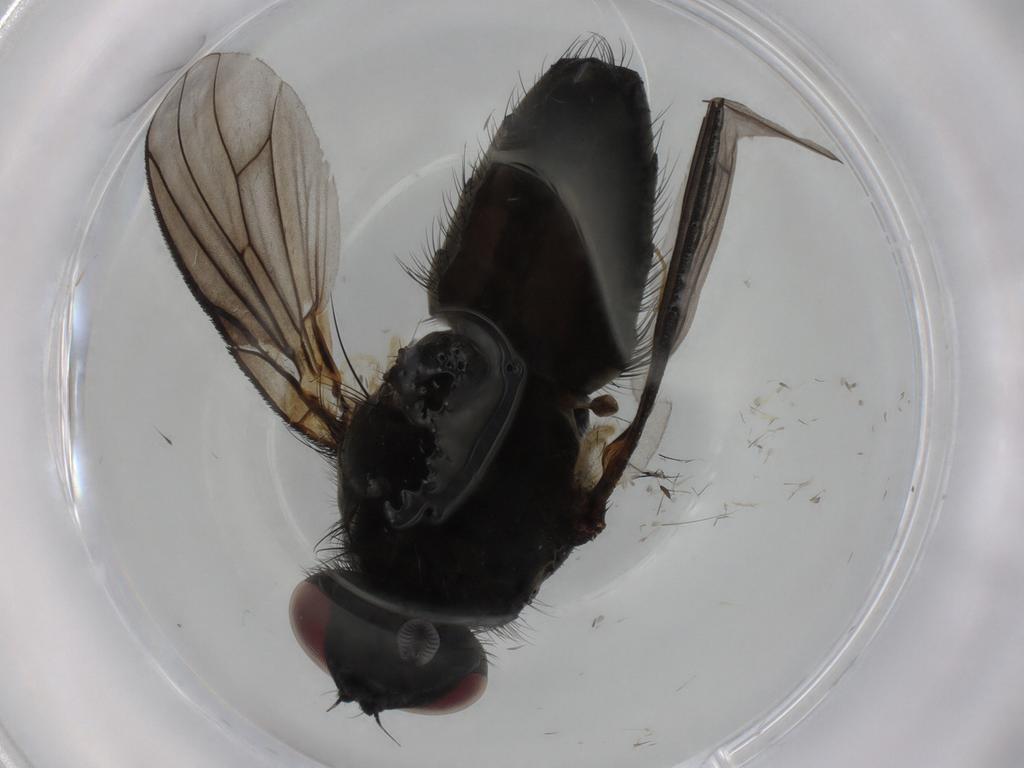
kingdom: Animalia
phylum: Arthropoda
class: Insecta
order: Diptera
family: Muscidae
